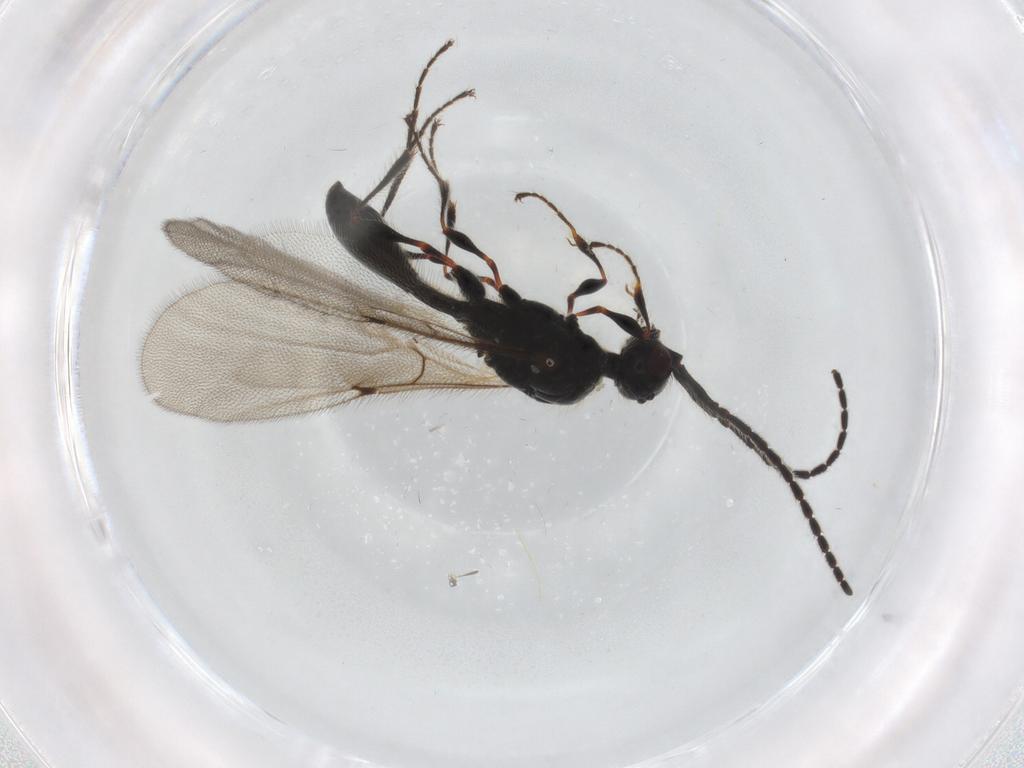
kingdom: Animalia
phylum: Arthropoda
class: Insecta
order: Hymenoptera
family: Diapriidae
